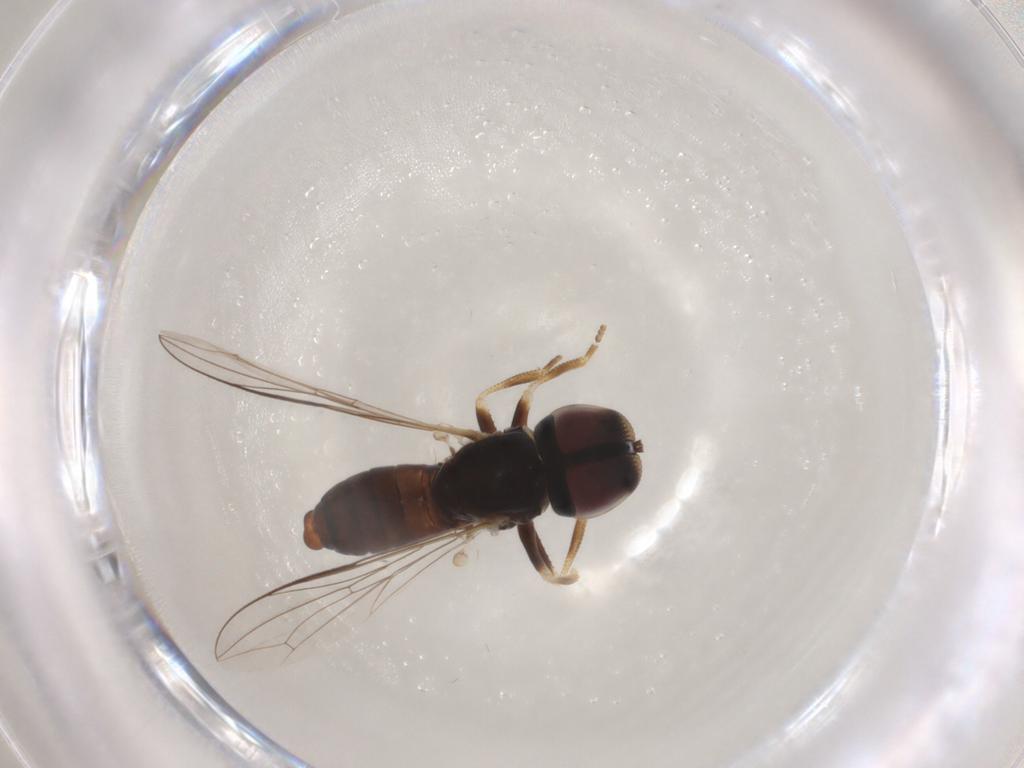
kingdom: Animalia
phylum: Arthropoda
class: Insecta
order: Diptera
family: Pipunculidae
